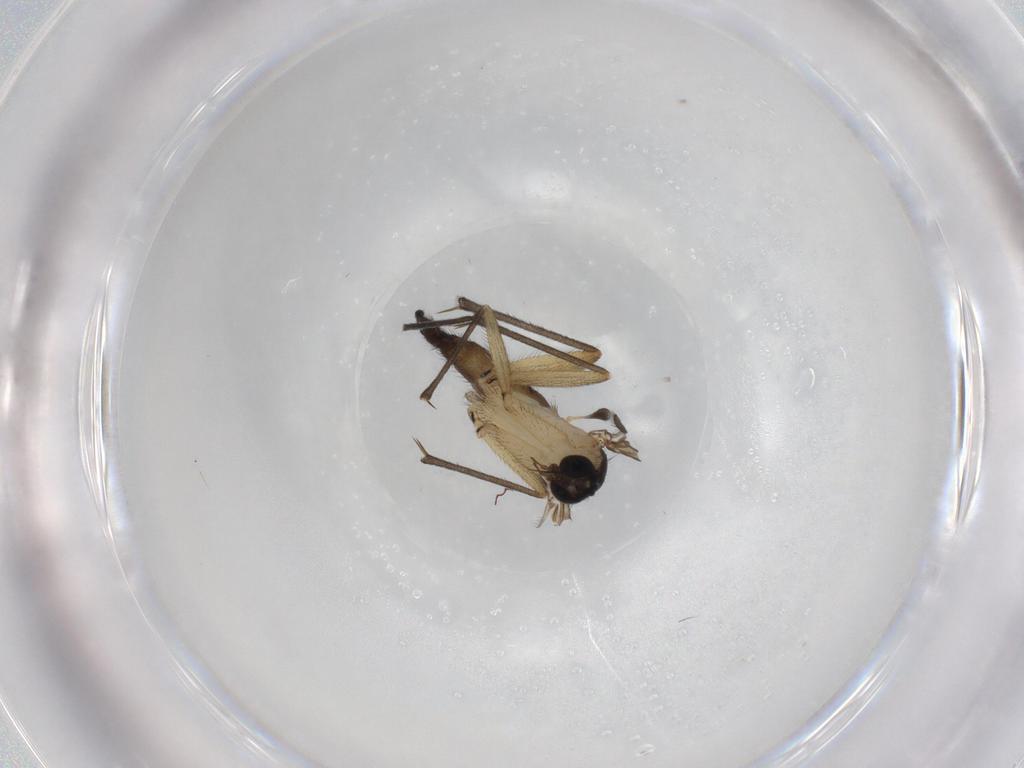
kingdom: Animalia
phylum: Arthropoda
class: Insecta
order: Diptera
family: Sciaridae
